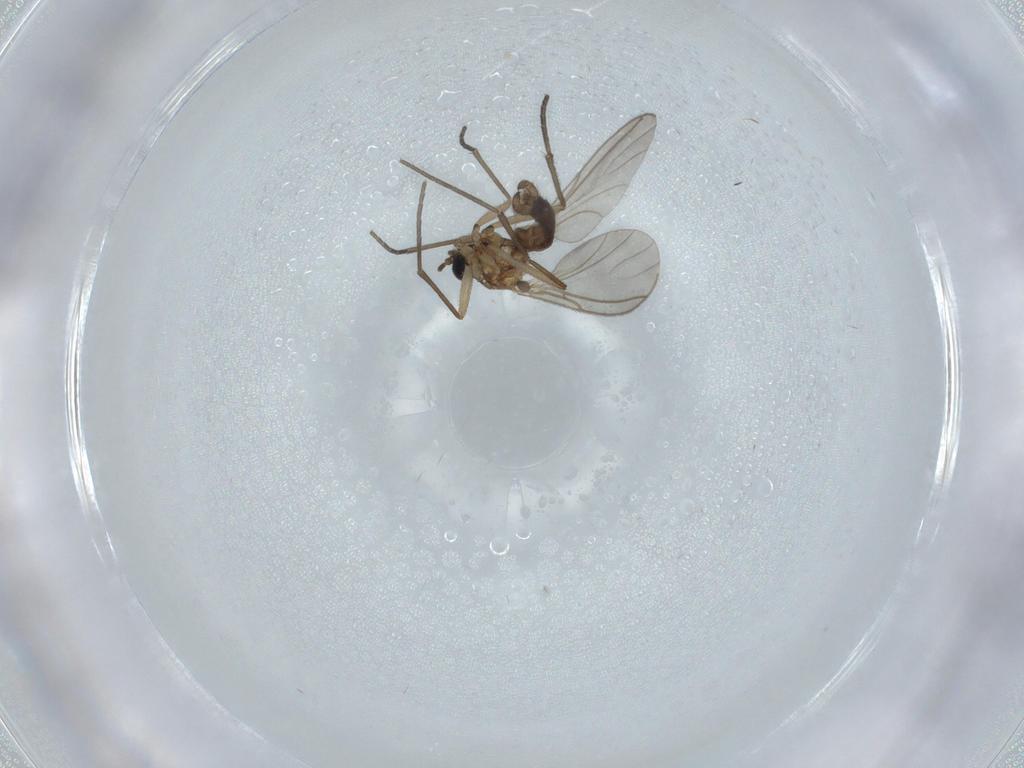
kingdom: Animalia
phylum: Arthropoda
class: Insecta
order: Diptera
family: Sciaridae
